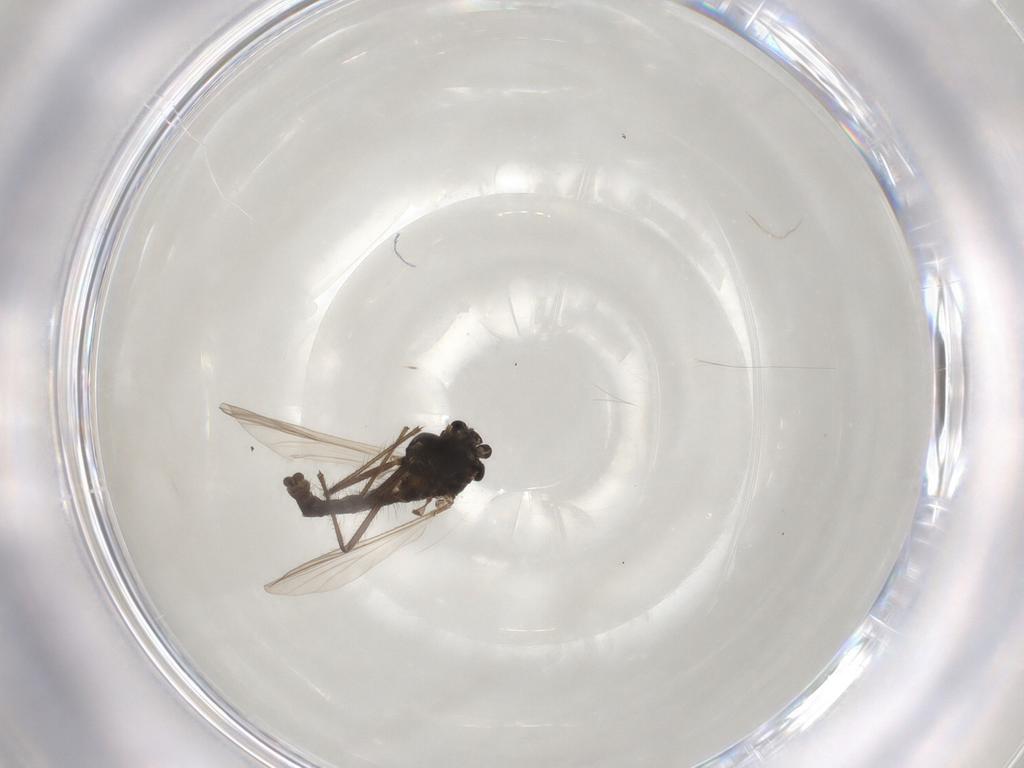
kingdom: Animalia
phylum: Arthropoda
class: Insecta
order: Diptera
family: Chironomidae
